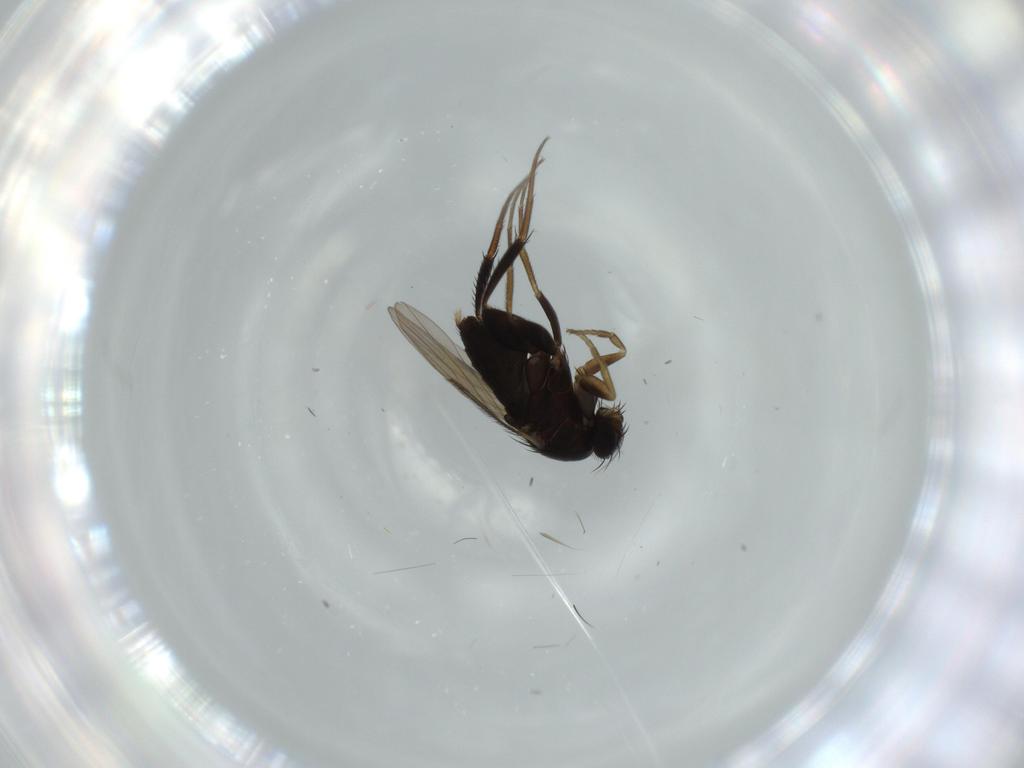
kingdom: Animalia
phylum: Arthropoda
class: Insecta
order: Diptera
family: Phoridae
